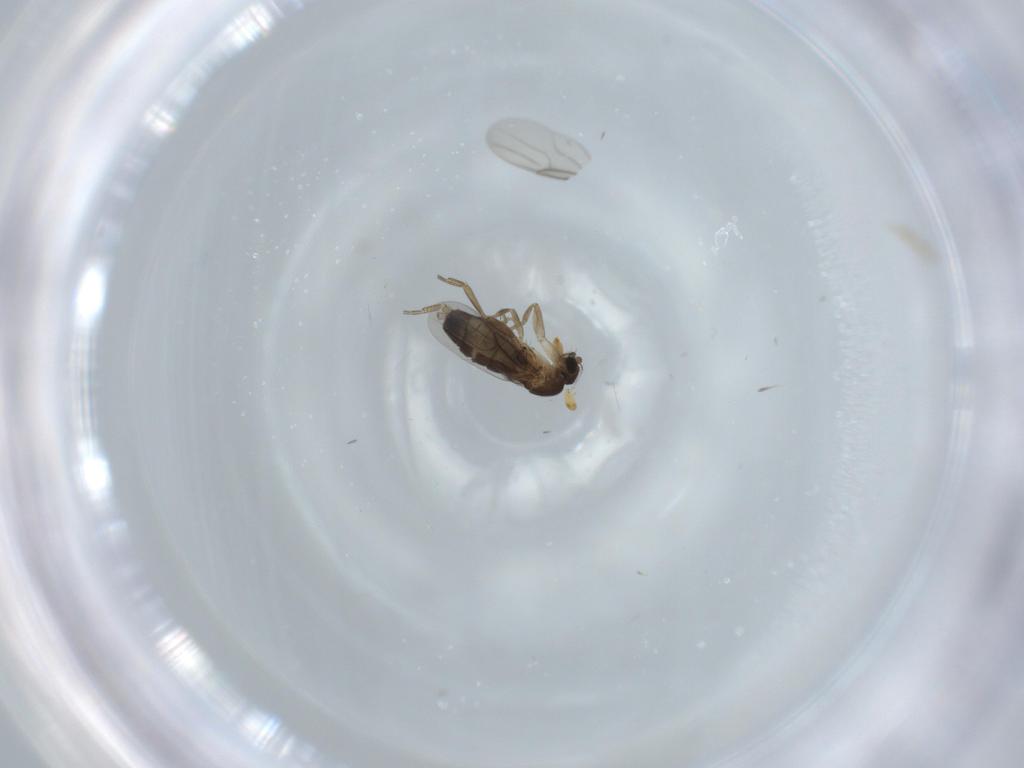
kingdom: Animalia
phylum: Arthropoda
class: Insecta
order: Diptera
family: Phoridae
